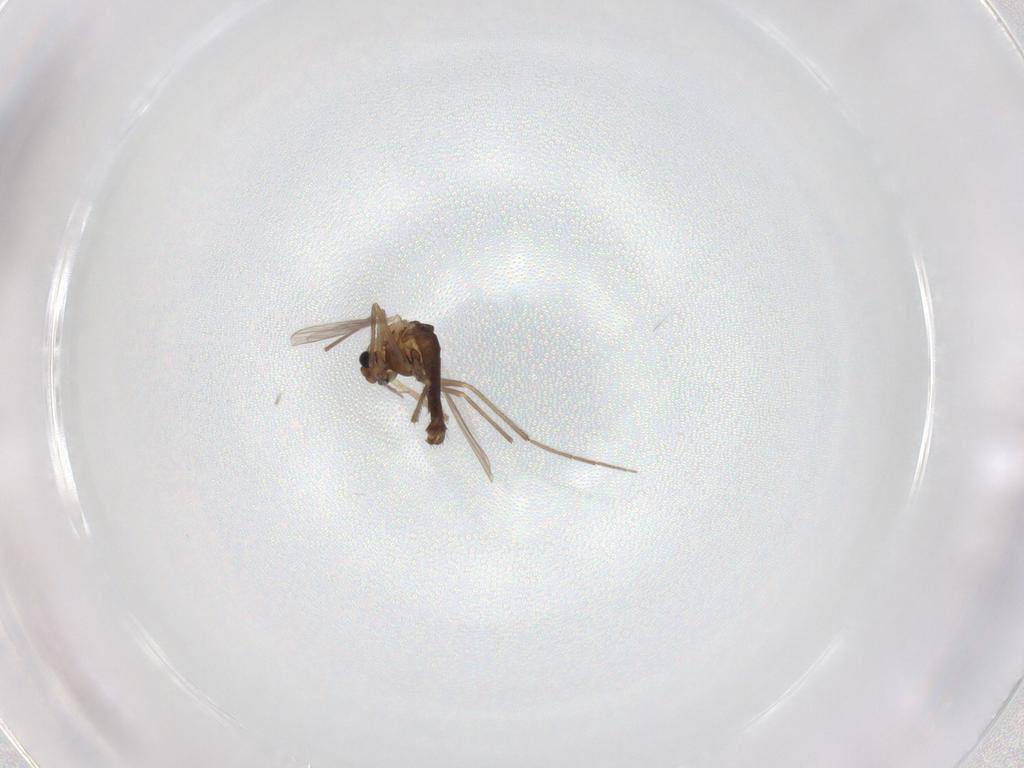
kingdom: Animalia
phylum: Arthropoda
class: Insecta
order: Diptera
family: Chironomidae
